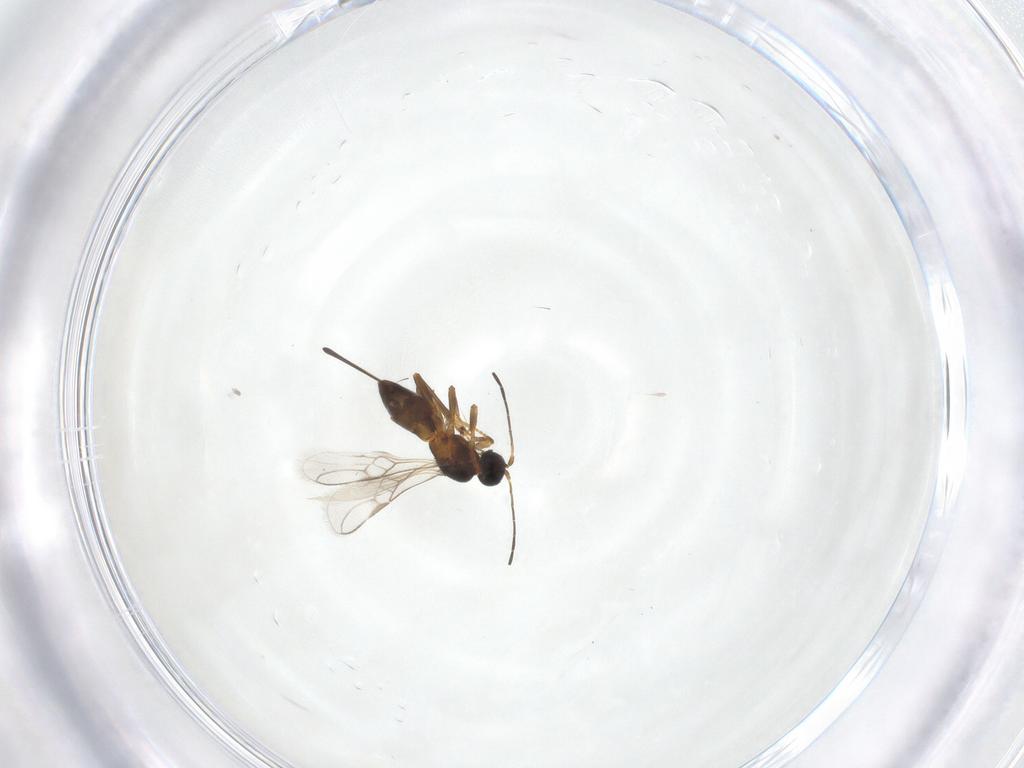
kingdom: Animalia
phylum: Arthropoda
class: Insecta
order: Hymenoptera
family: Braconidae
